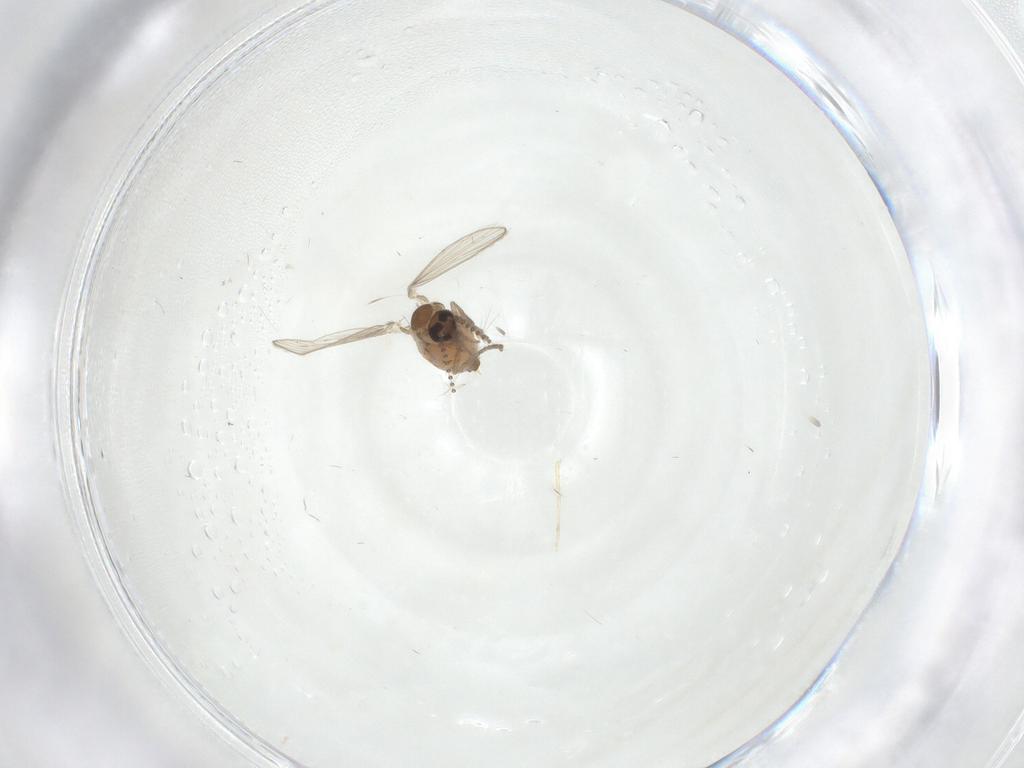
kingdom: Animalia
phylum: Arthropoda
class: Insecta
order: Diptera
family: Psychodidae
